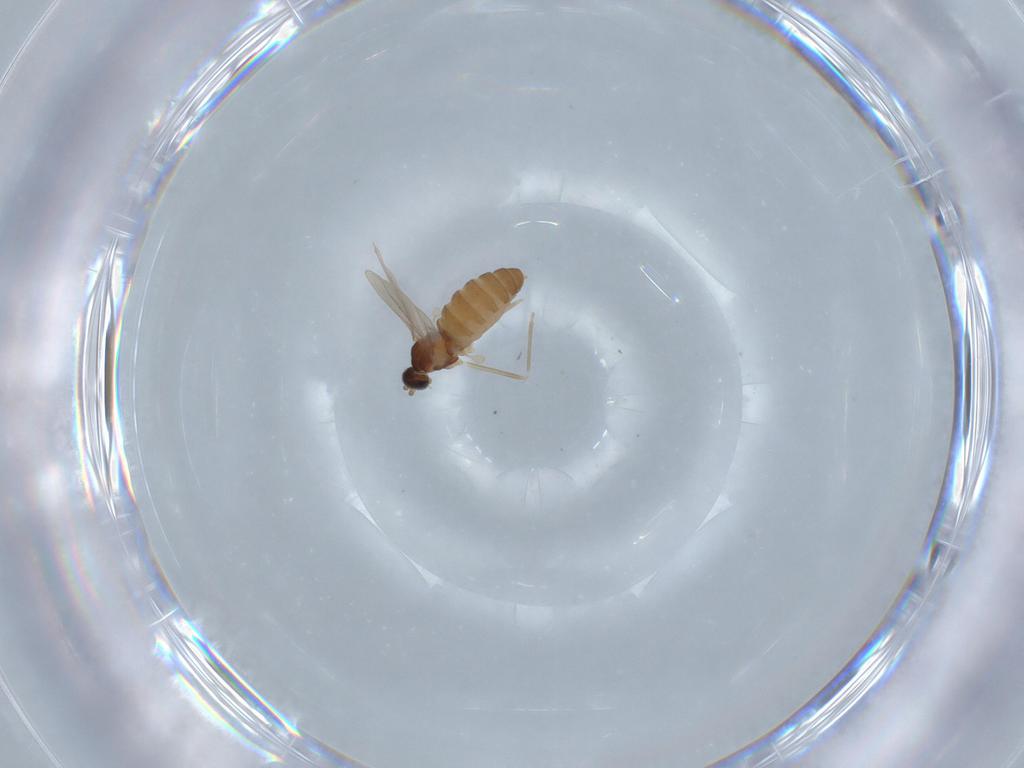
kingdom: Animalia
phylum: Arthropoda
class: Insecta
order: Diptera
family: Cecidomyiidae
